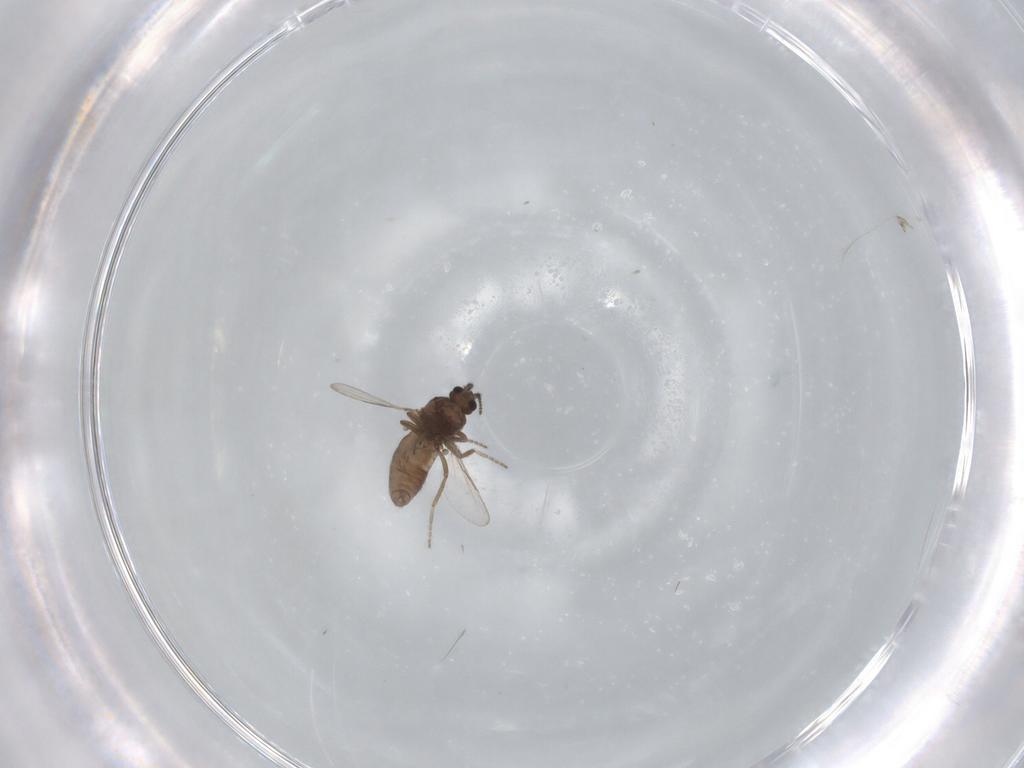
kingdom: Animalia
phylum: Arthropoda
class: Insecta
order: Diptera
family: Ceratopogonidae
